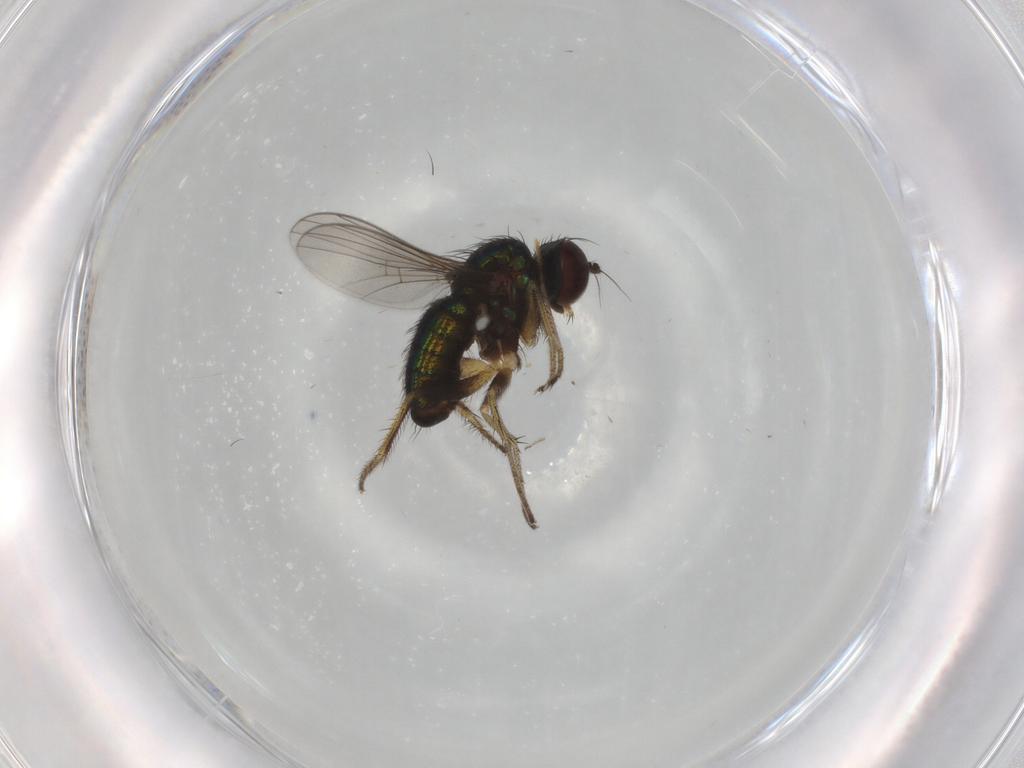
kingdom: Animalia
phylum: Arthropoda
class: Insecta
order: Diptera
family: Dolichopodidae
